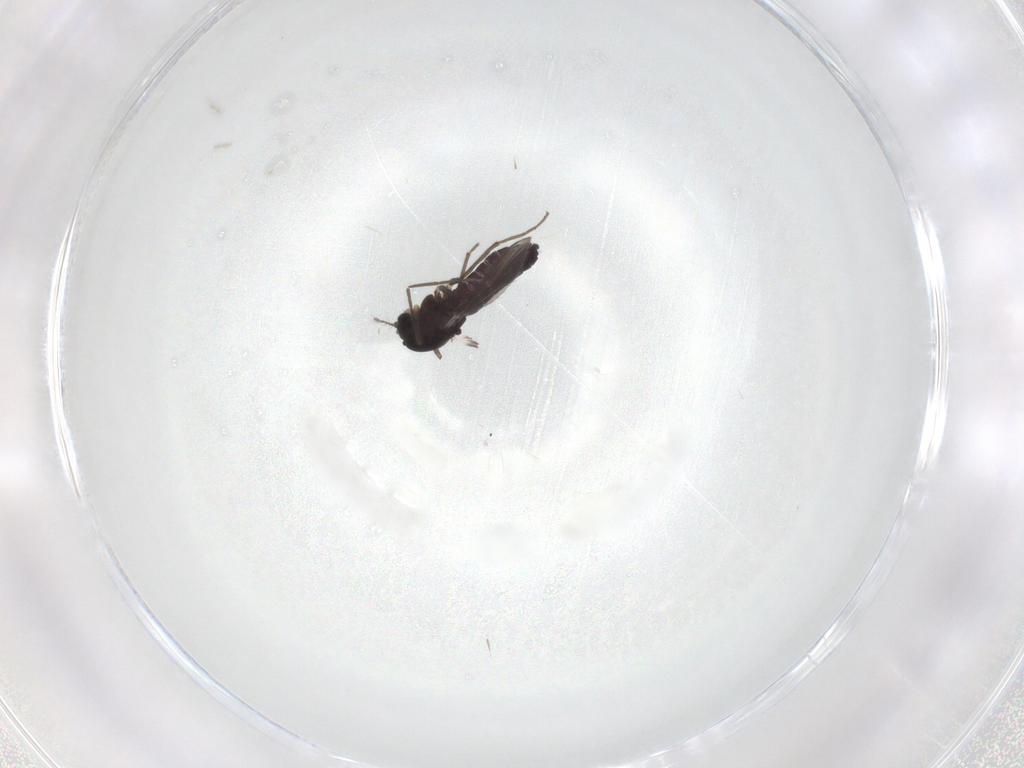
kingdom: Animalia
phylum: Arthropoda
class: Insecta
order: Diptera
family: Chironomidae
